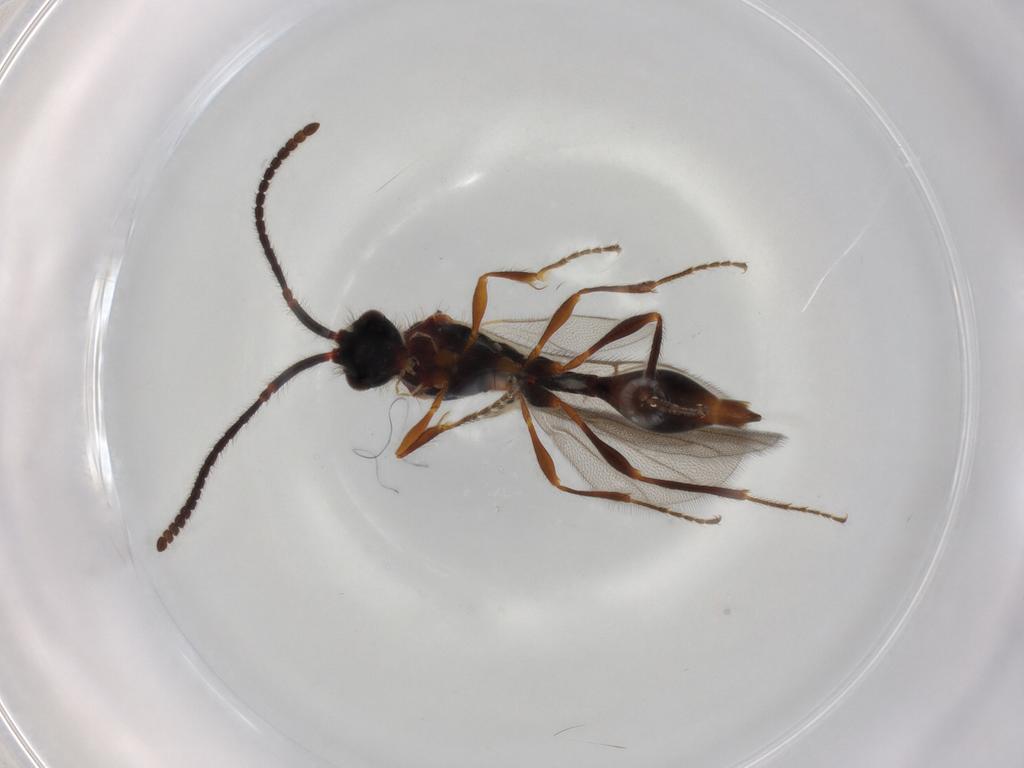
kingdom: Animalia
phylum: Arthropoda
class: Insecta
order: Hymenoptera
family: Diapriidae
